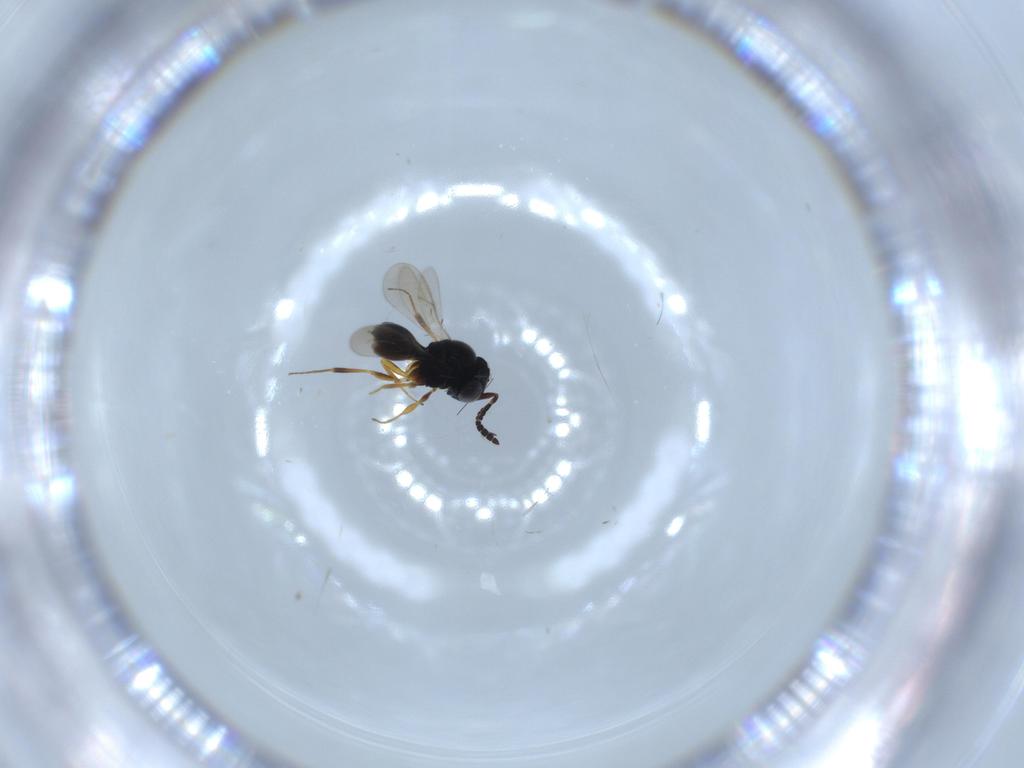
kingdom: Animalia
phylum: Arthropoda
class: Insecta
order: Hymenoptera
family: Scelionidae
